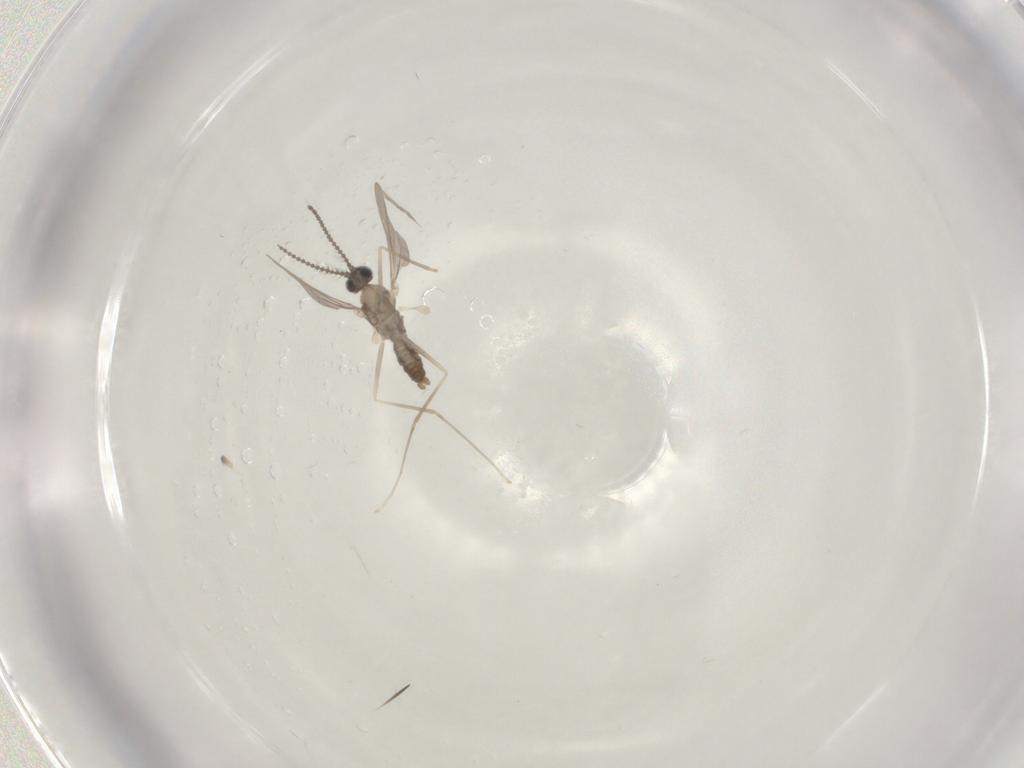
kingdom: Animalia
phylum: Arthropoda
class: Insecta
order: Diptera
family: Cecidomyiidae
